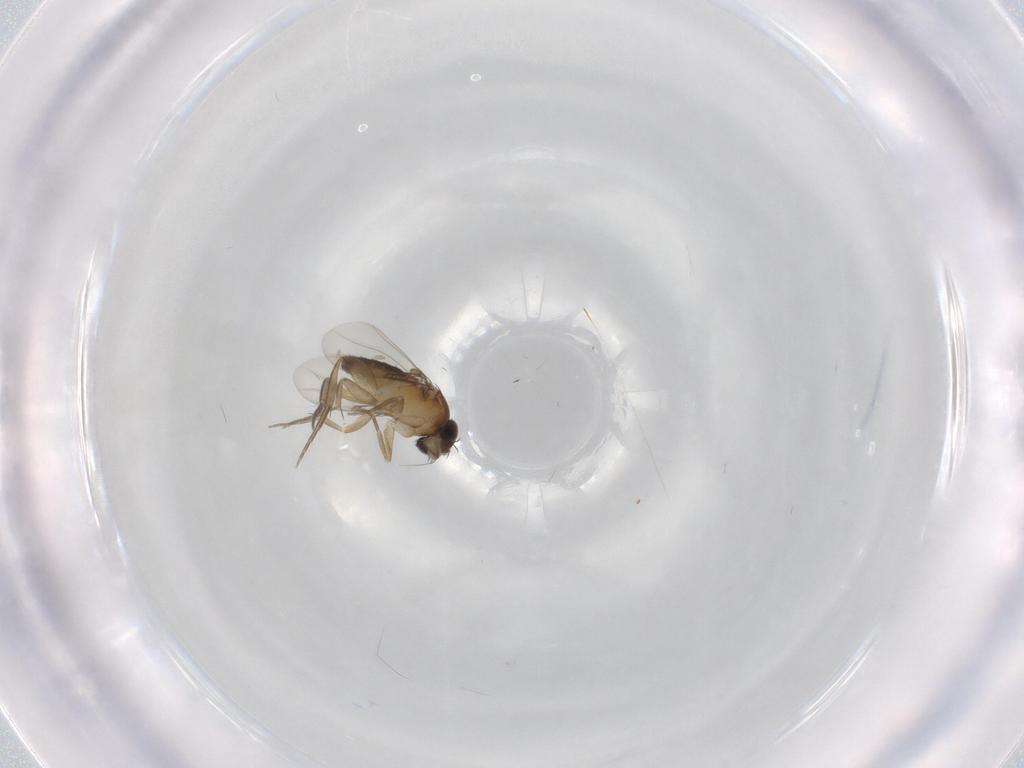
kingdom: Animalia
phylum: Arthropoda
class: Insecta
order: Diptera
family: Phoridae
